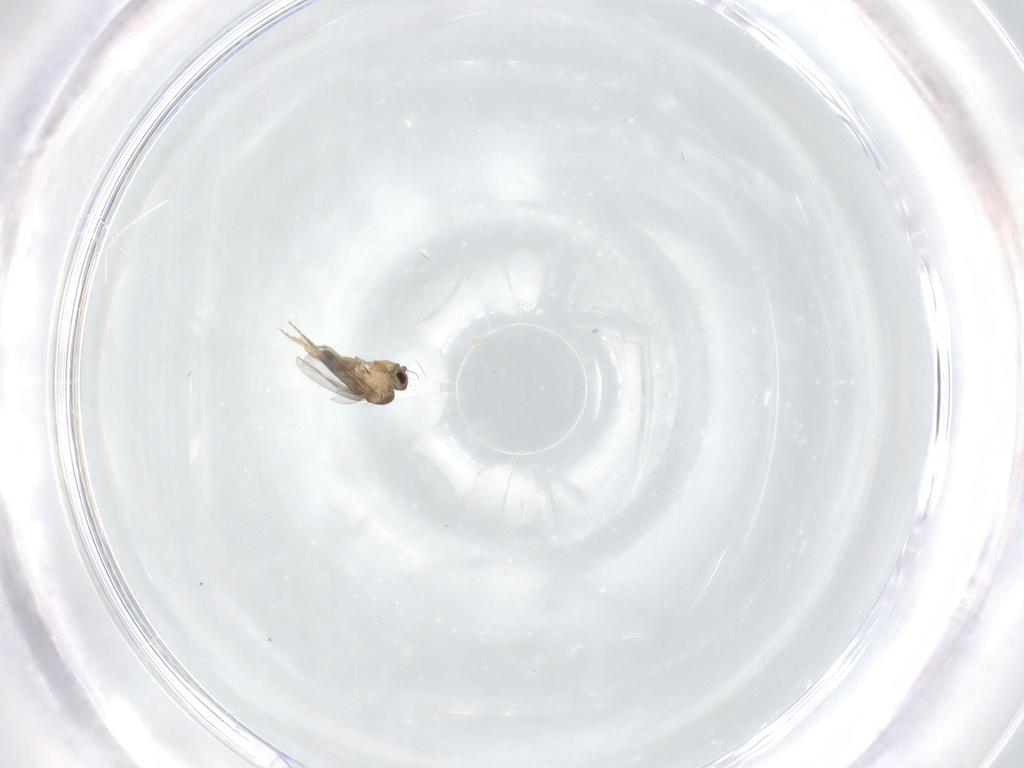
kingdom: Animalia
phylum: Arthropoda
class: Insecta
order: Diptera
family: Phoridae
